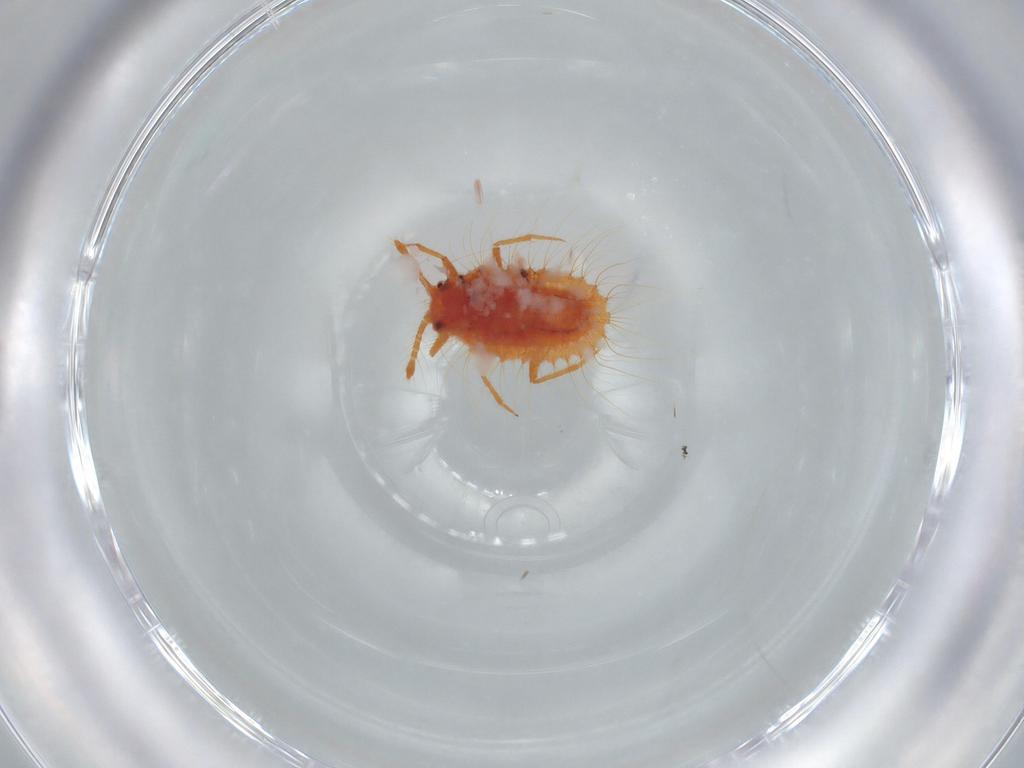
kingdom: Animalia
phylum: Arthropoda
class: Insecta
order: Hemiptera
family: Coccoidea_incertae_sedis
